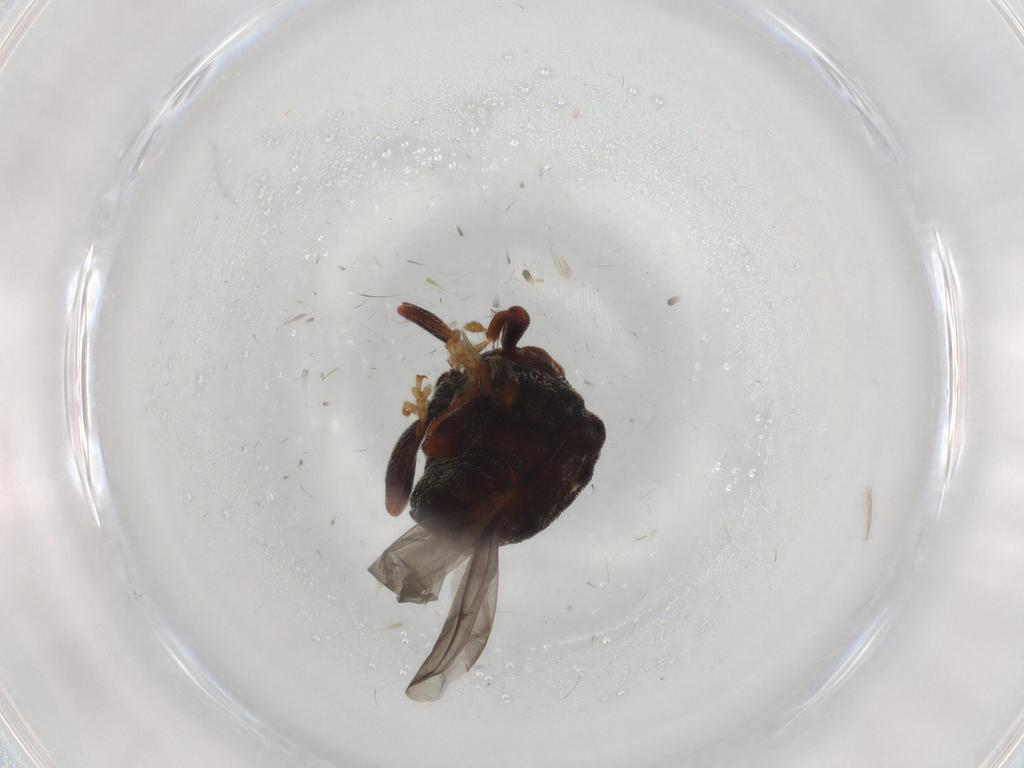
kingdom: Animalia
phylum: Arthropoda
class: Insecta
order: Coleoptera
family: Curculionidae
